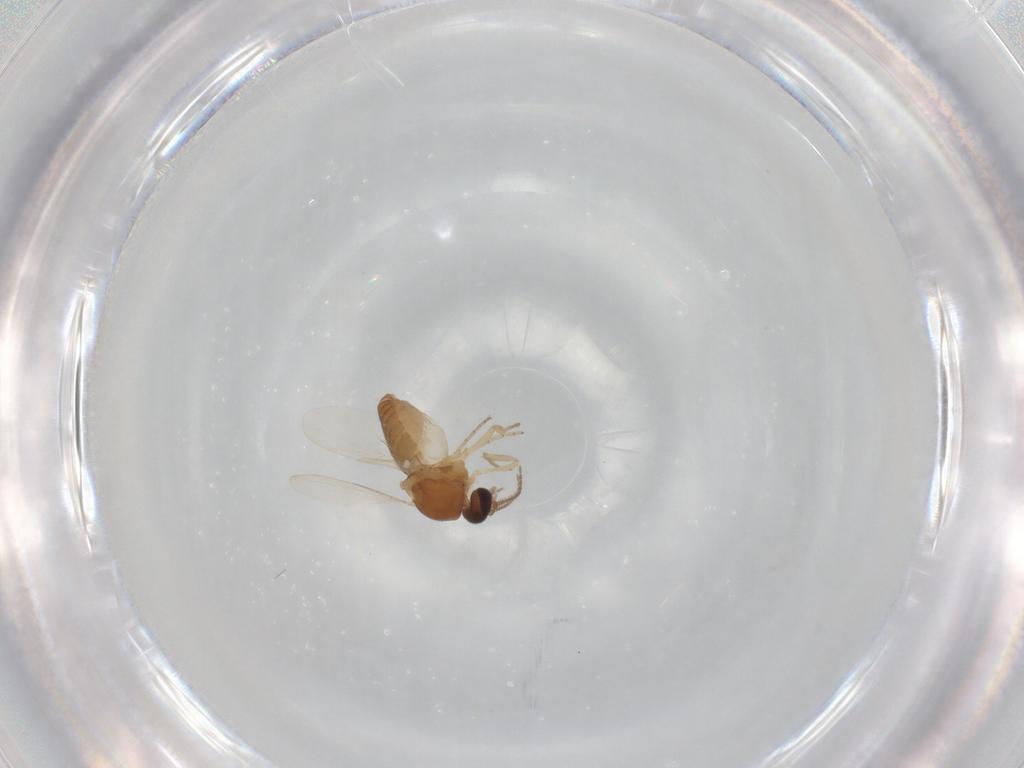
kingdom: Animalia
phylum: Arthropoda
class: Insecta
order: Diptera
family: Ceratopogonidae
